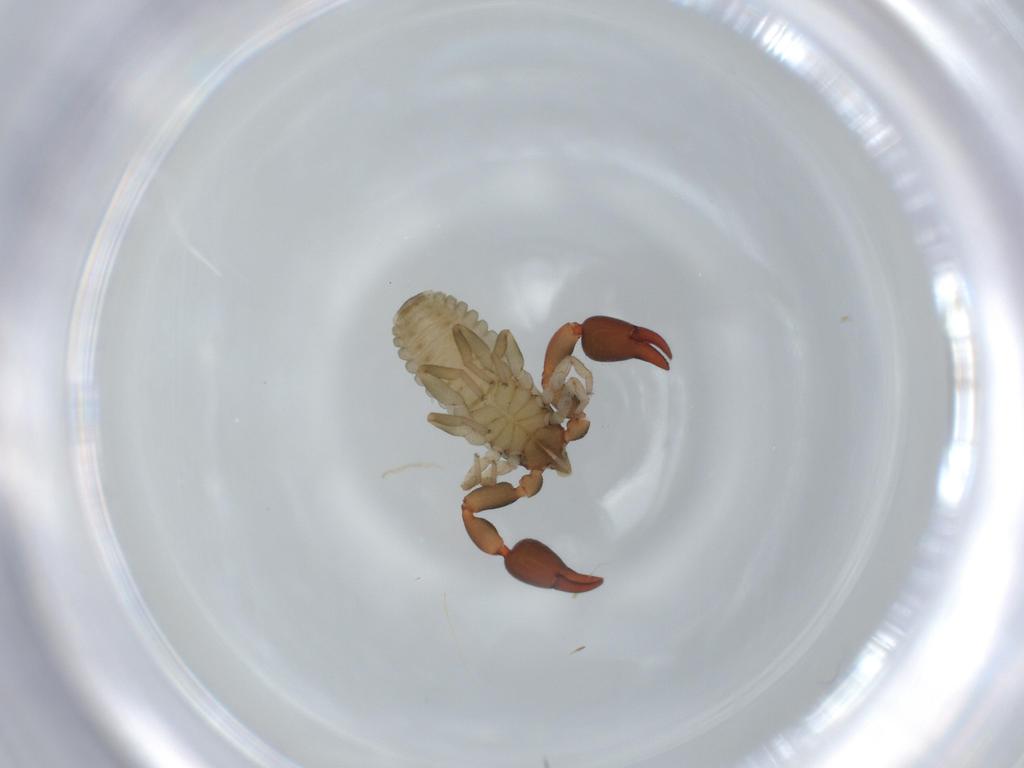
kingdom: Animalia
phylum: Arthropoda
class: Arachnida
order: Pseudoscorpiones
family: Chernetidae
